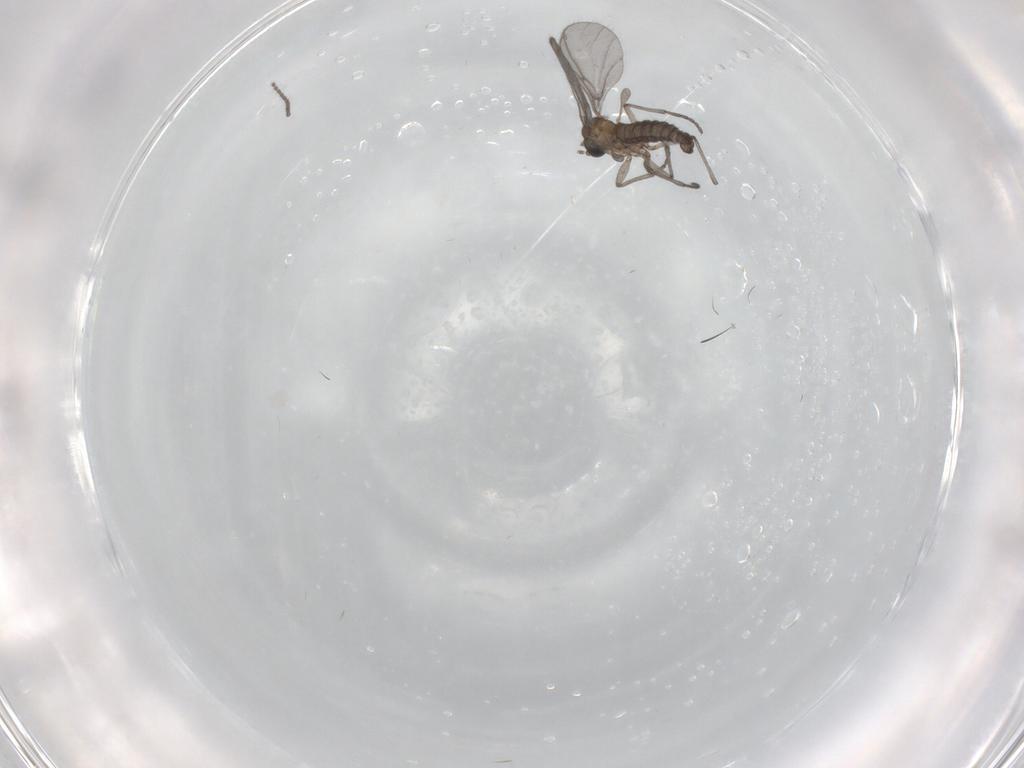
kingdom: Animalia
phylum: Arthropoda
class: Insecta
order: Diptera
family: Sciaridae
